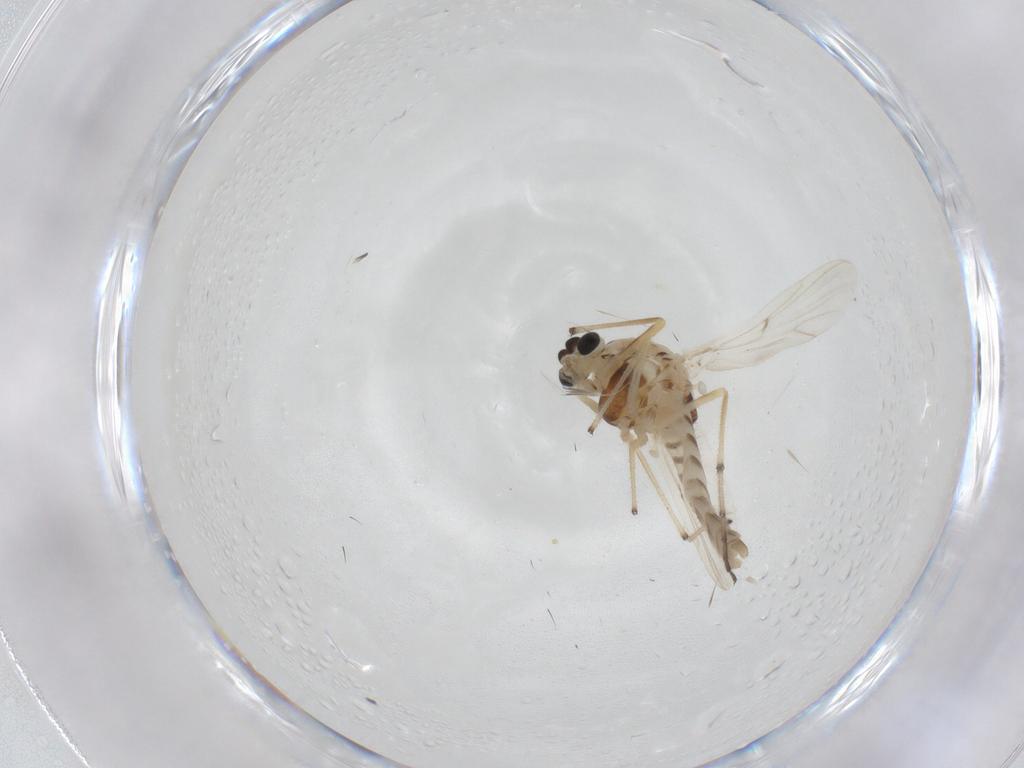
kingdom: Animalia
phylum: Arthropoda
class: Insecta
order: Diptera
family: Chironomidae
